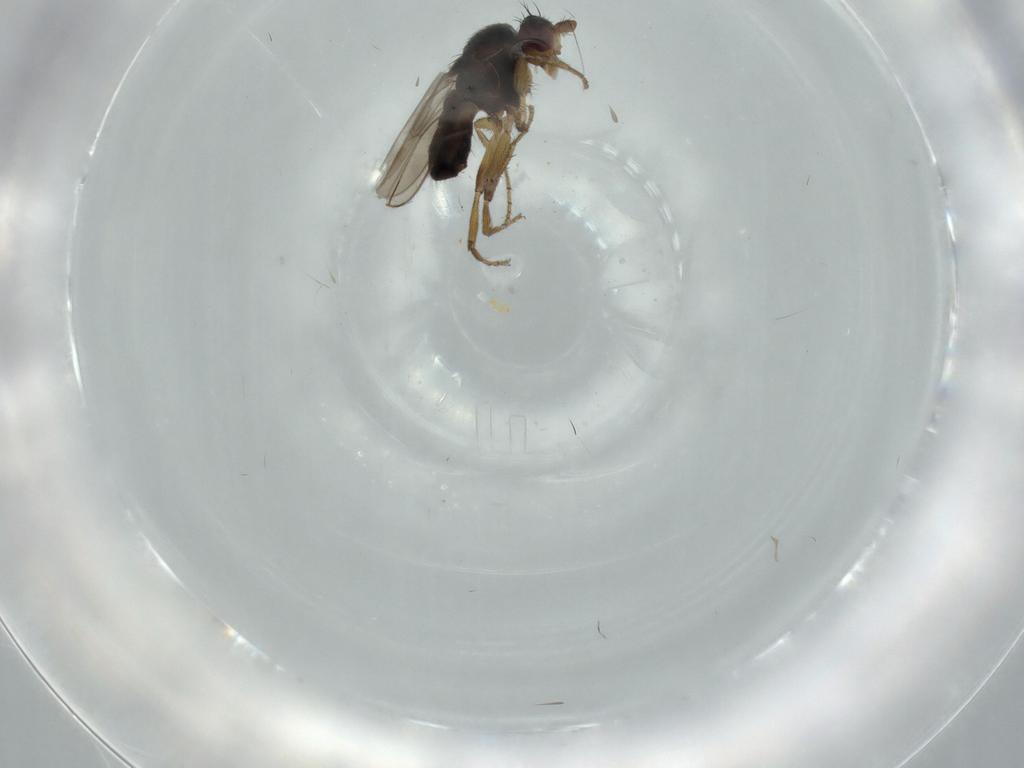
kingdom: Animalia
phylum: Arthropoda
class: Insecta
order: Diptera
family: Sphaeroceridae
